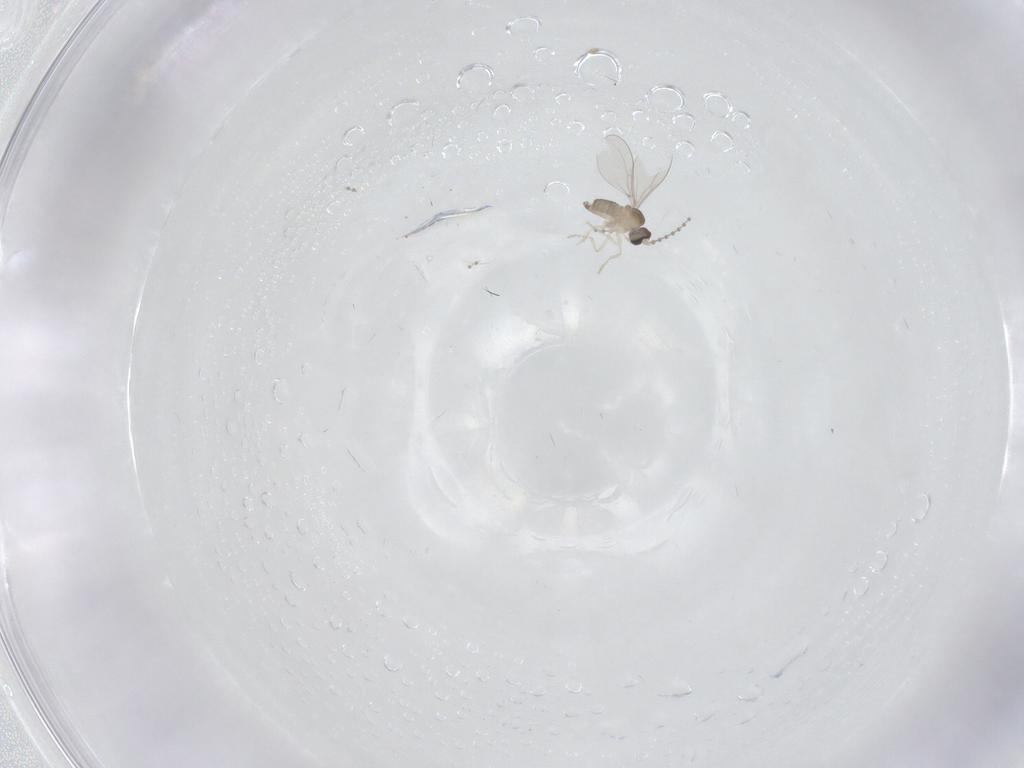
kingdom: Animalia
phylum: Arthropoda
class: Insecta
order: Diptera
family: Cecidomyiidae
